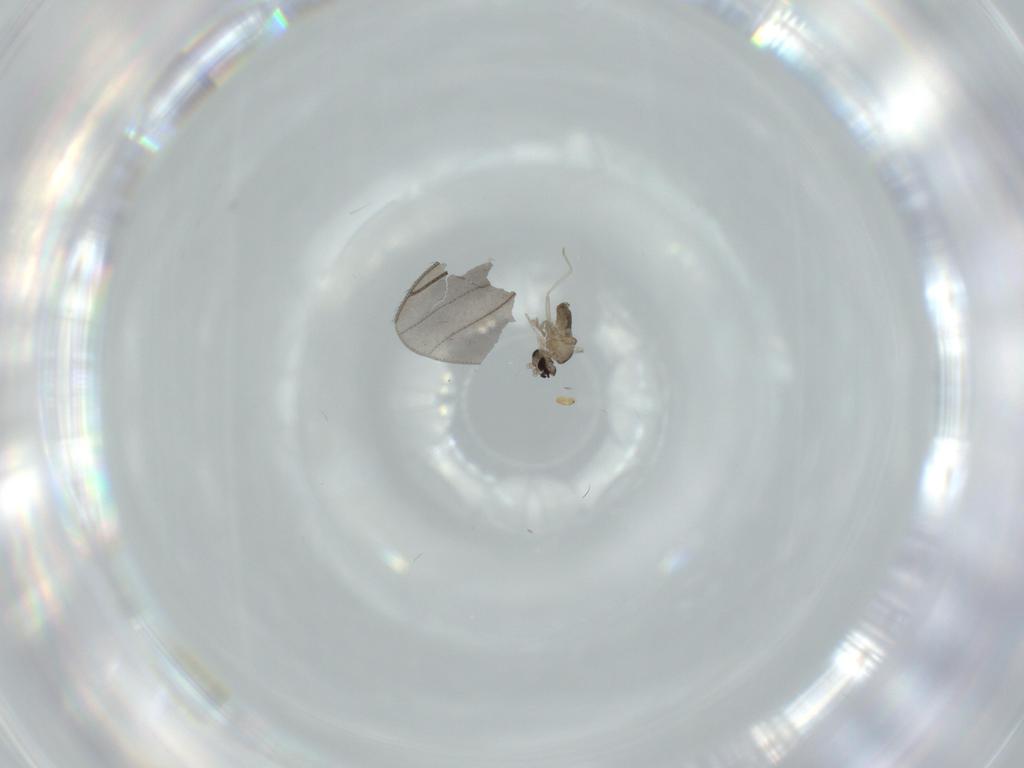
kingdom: Animalia
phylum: Arthropoda
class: Insecta
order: Diptera
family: Cecidomyiidae
